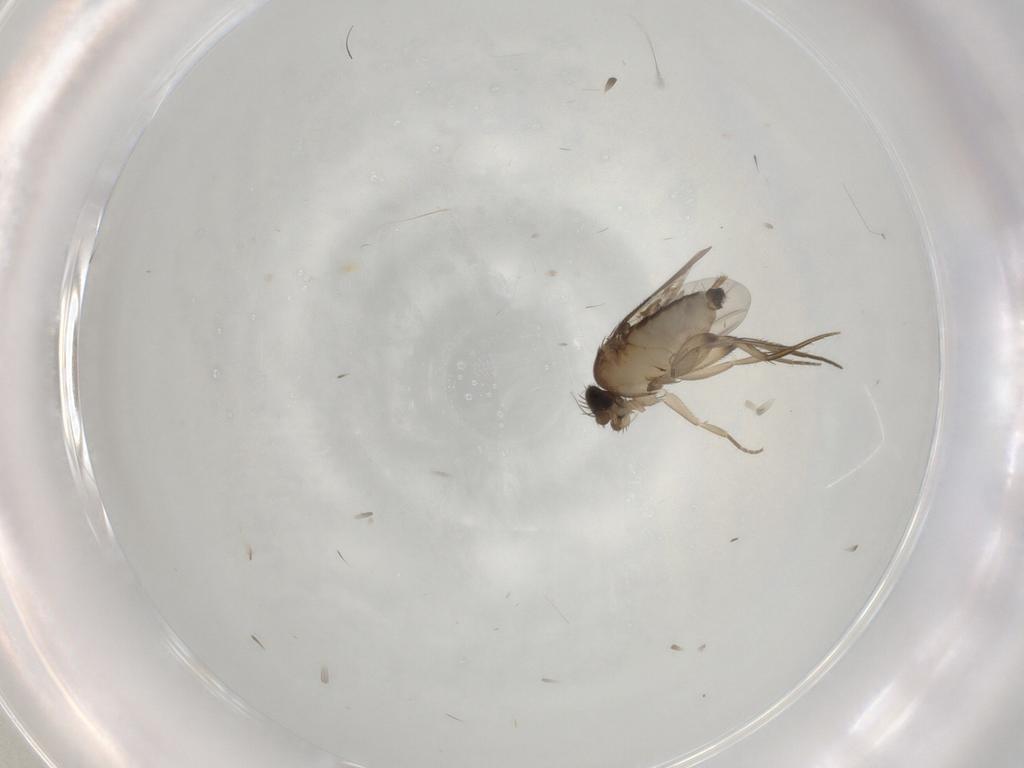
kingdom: Animalia
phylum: Arthropoda
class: Insecta
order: Diptera
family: Phoridae
